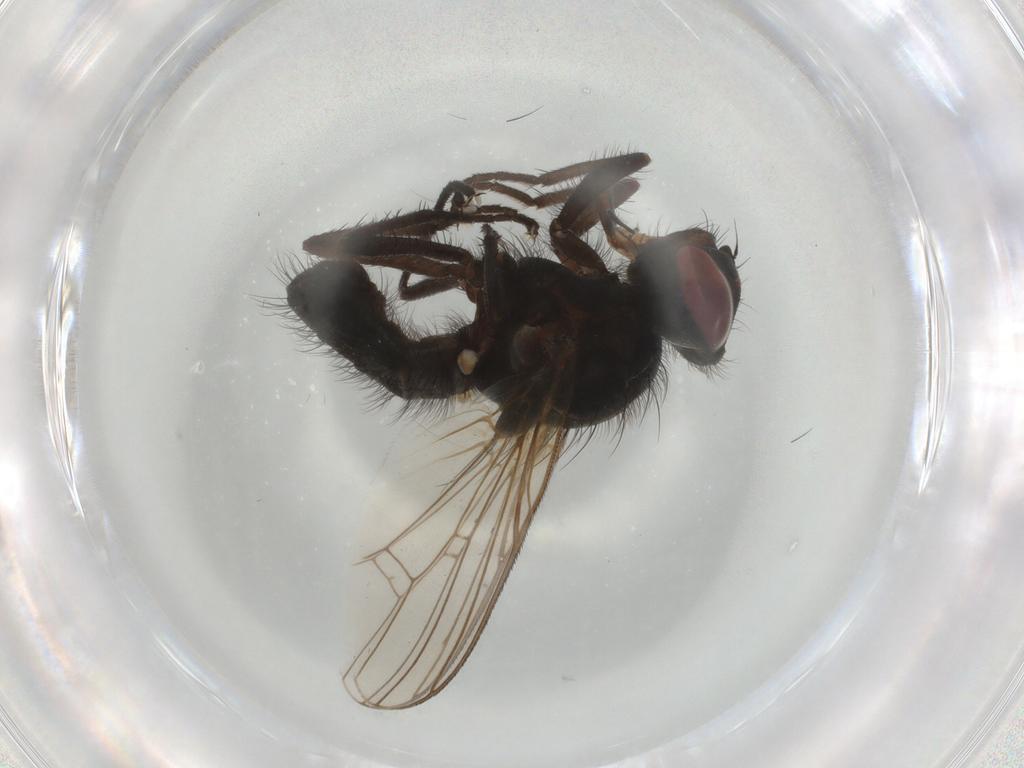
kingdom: Animalia
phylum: Arthropoda
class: Insecta
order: Diptera
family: Anthomyiidae
